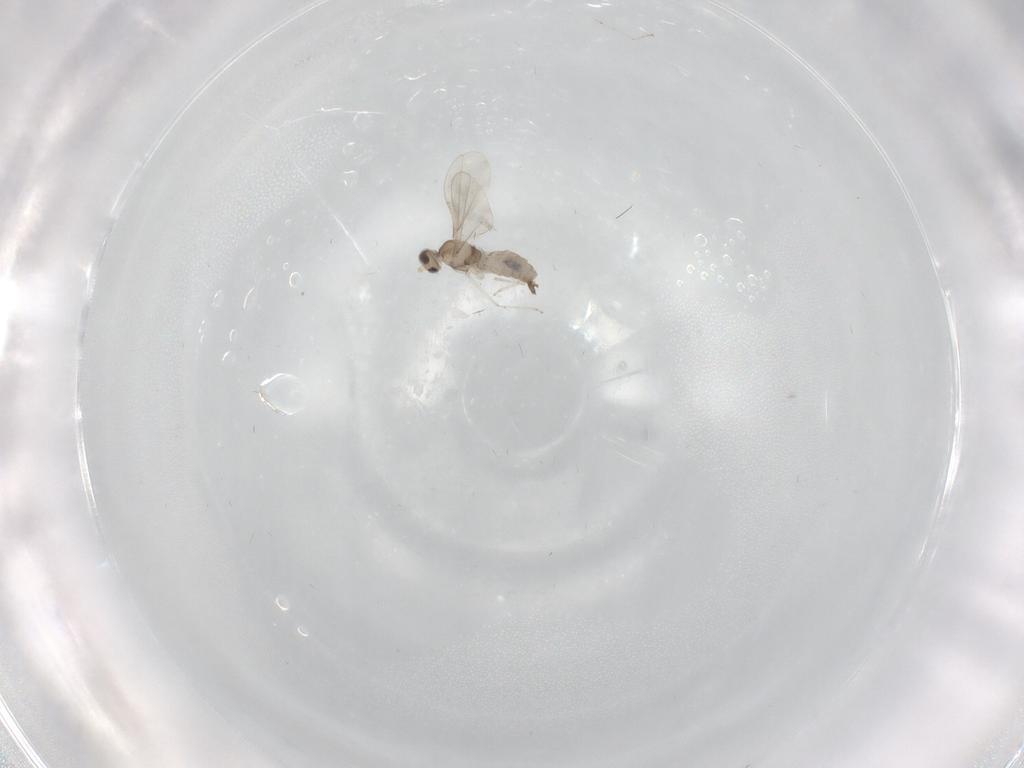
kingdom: Animalia
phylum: Arthropoda
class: Insecta
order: Diptera
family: Cecidomyiidae
